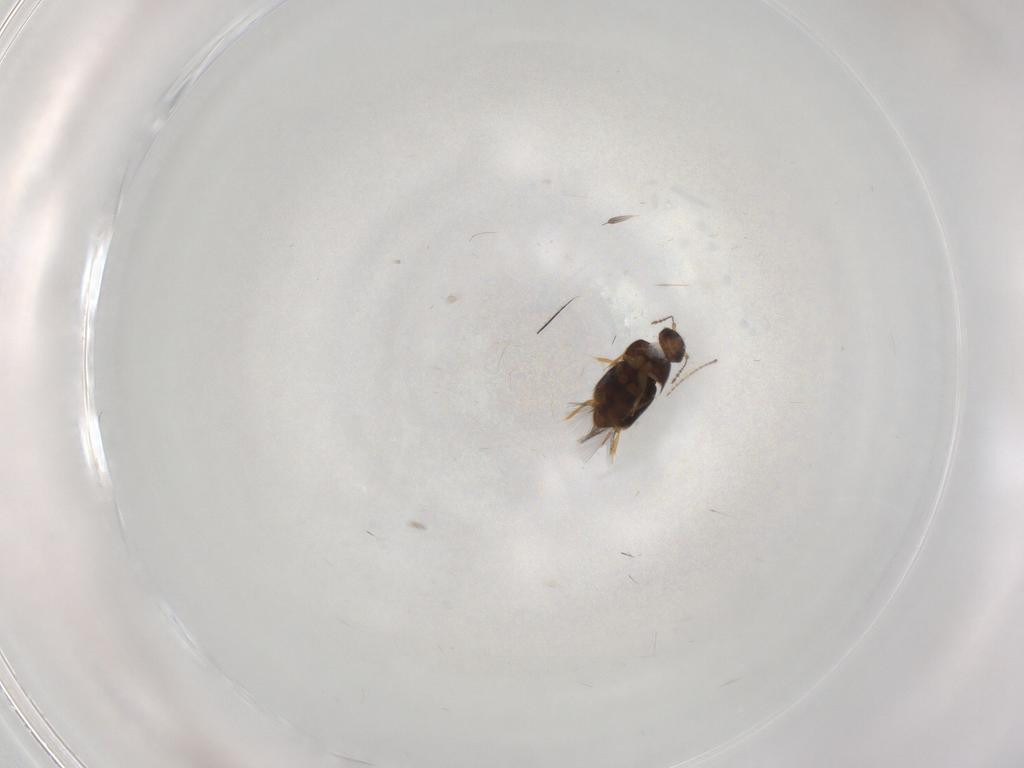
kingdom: Animalia
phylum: Arthropoda
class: Insecta
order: Coleoptera
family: Ptiliidae
